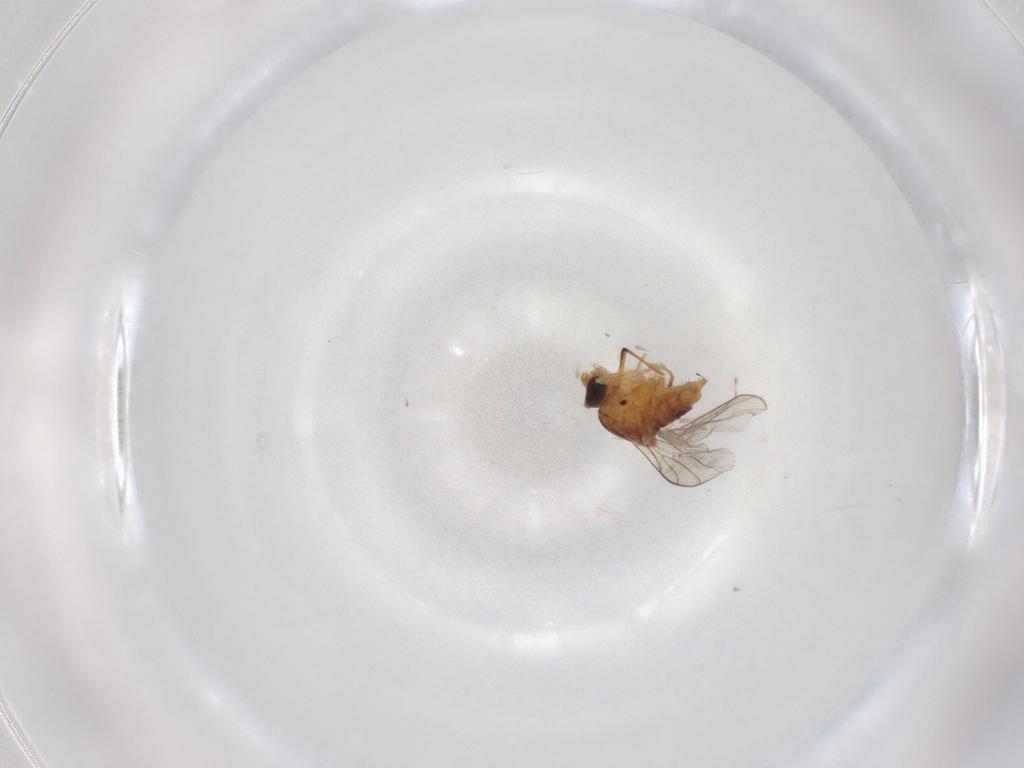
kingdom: Animalia
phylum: Arthropoda
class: Insecta
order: Diptera
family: Chloropidae
